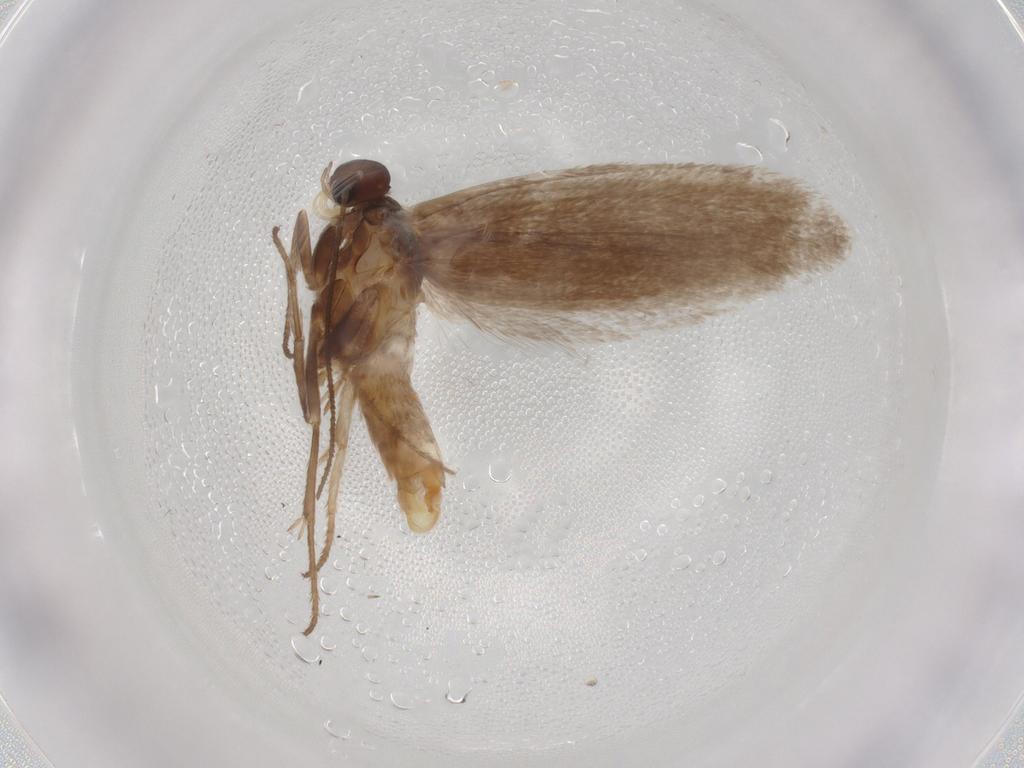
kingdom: Animalia
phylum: Arthropoda
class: Insecta
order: Lepidoptera
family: Limacodidae
